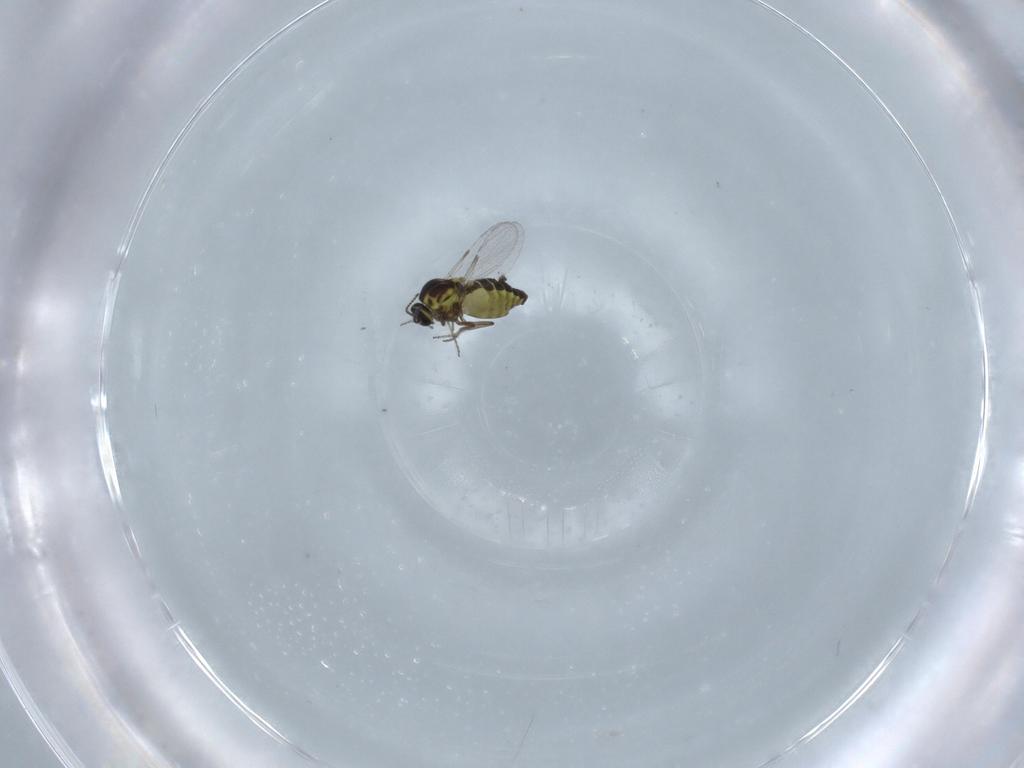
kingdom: Animalia
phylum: Arthropoda
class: Insecta
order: Diptera
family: Ceratopogonidae
